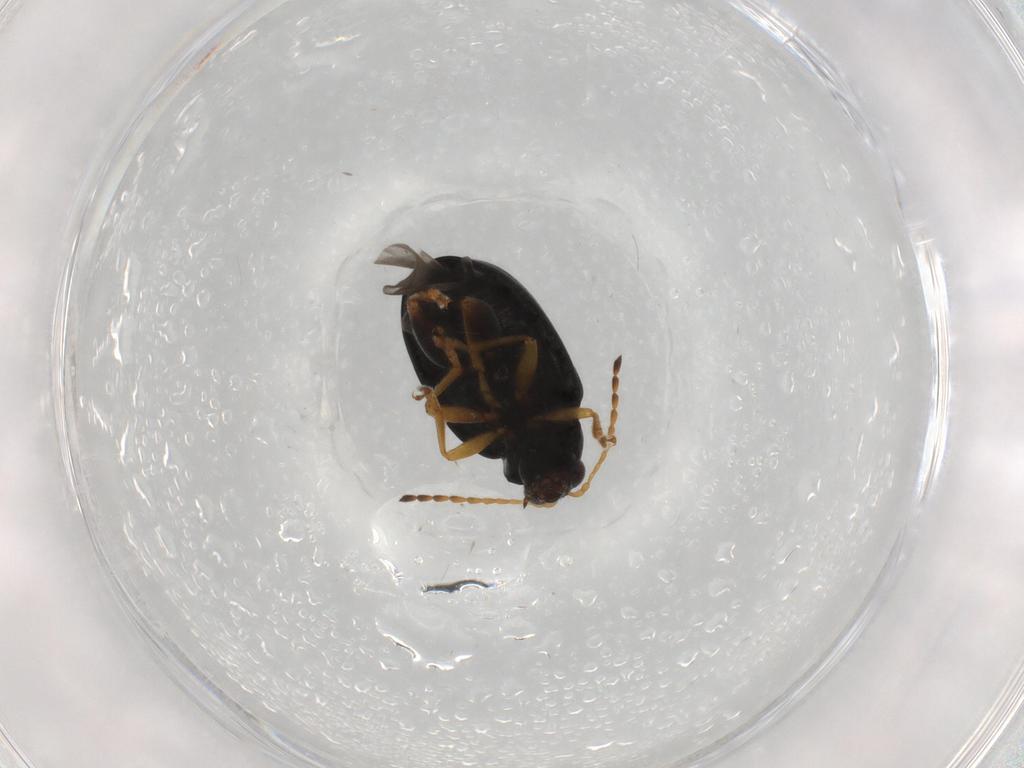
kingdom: Animalia
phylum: Arthropoda
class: Insecta
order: Coleoptera
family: Chrysomelidae
